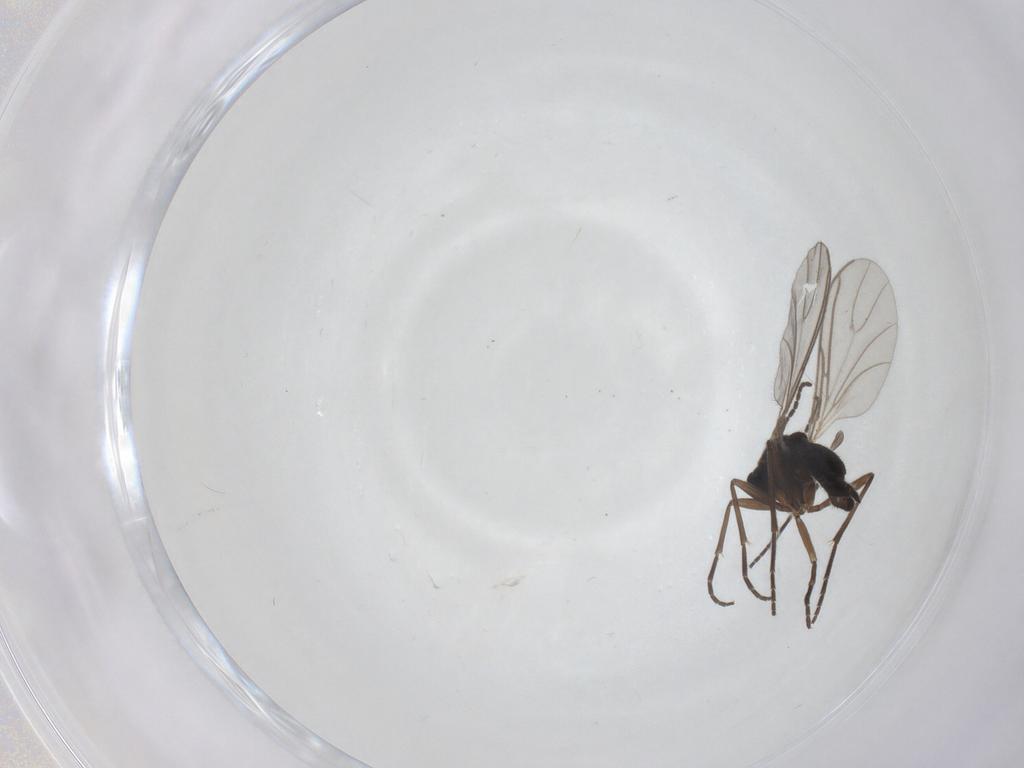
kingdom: Animalia
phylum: Arthropoda
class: Insecta
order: Diptera
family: Sciaridae
